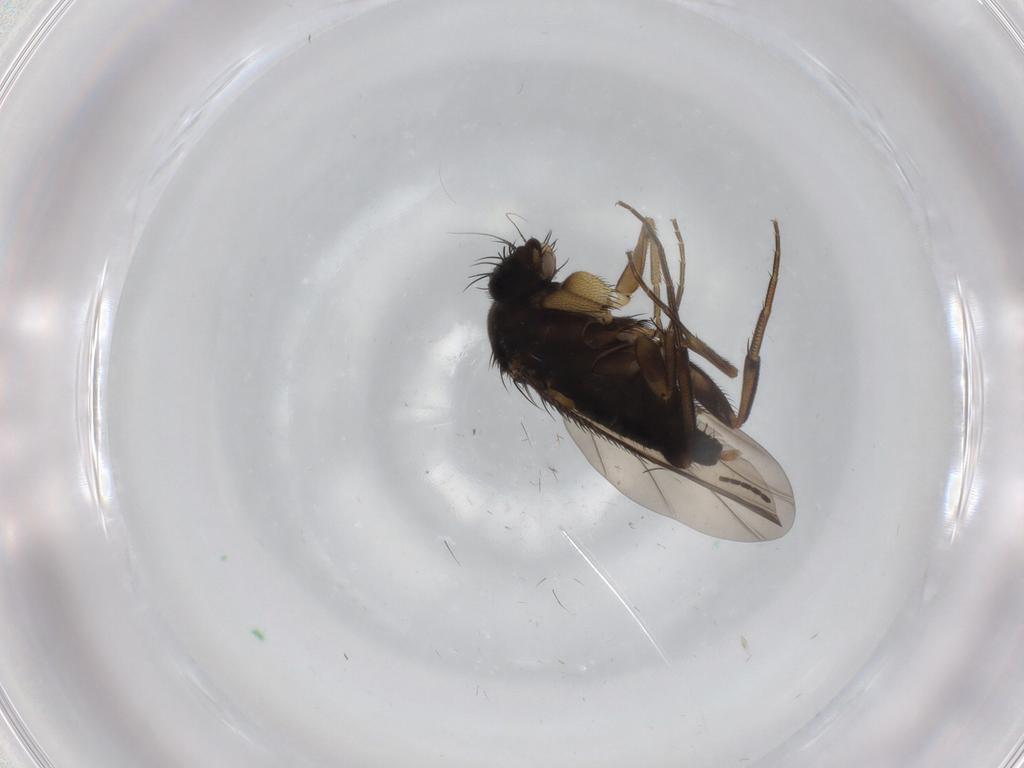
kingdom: Animalia
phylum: Arthropoda
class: Insecta
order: Diptera
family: Phoridae
